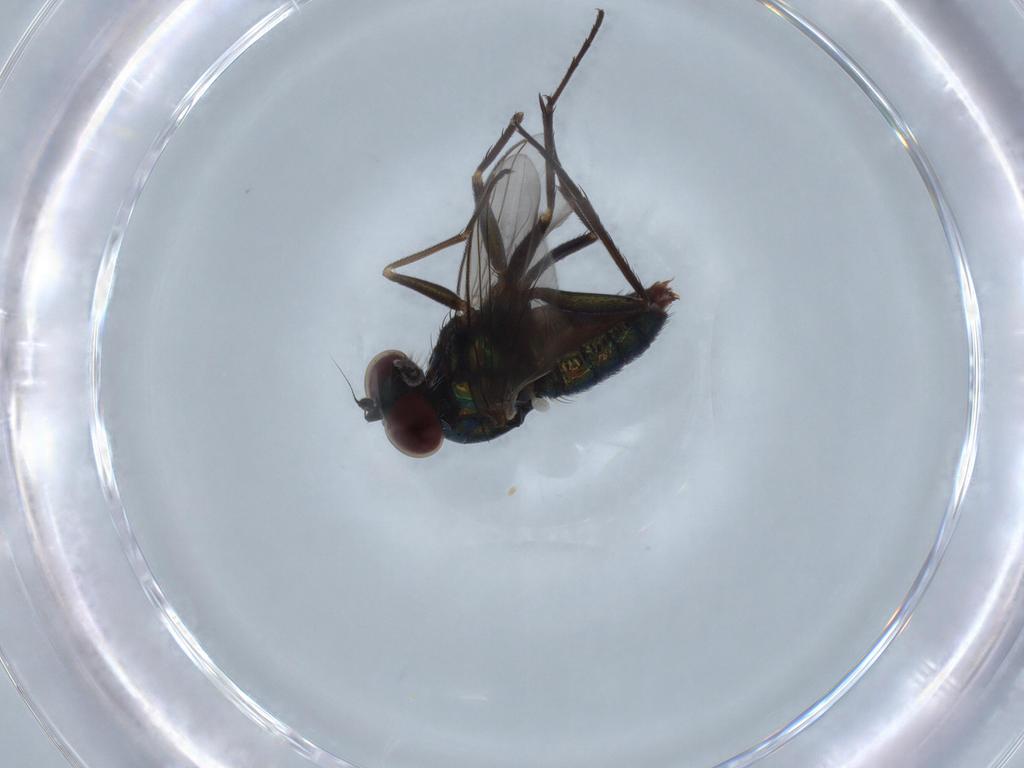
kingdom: Animalia
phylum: Arthropoda
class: Insecta
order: Diptera
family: Dolichopodidae
